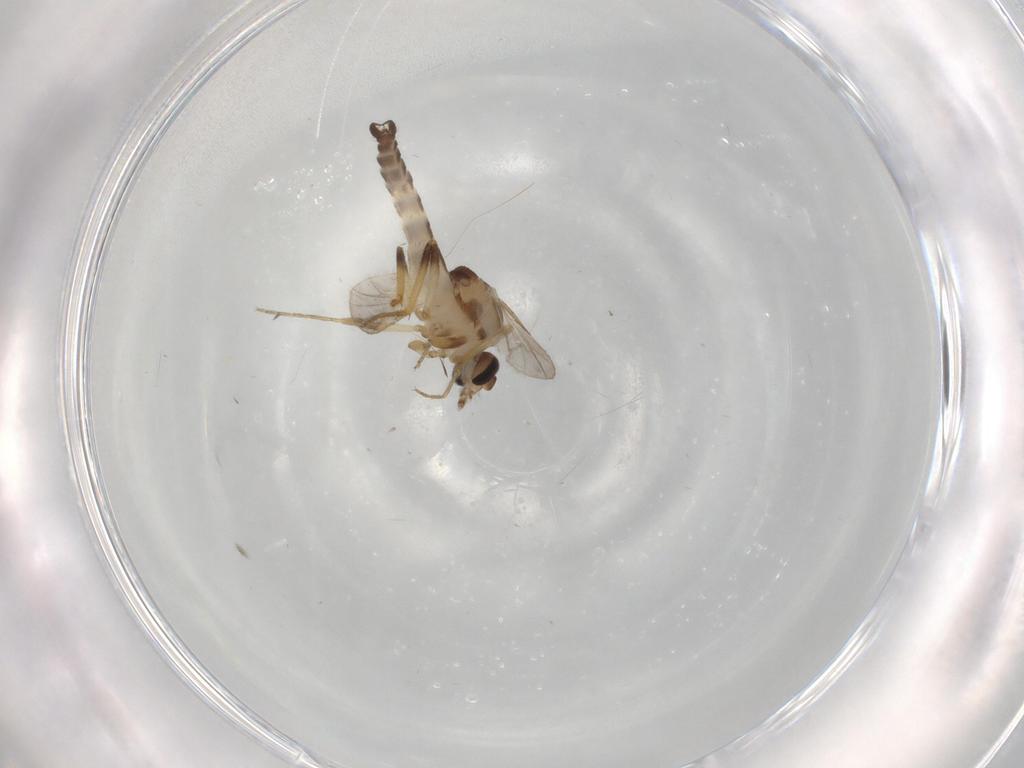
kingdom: Animalia
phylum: Arthropoda
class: Insecta
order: Diptera
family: Ceratopogonidae
